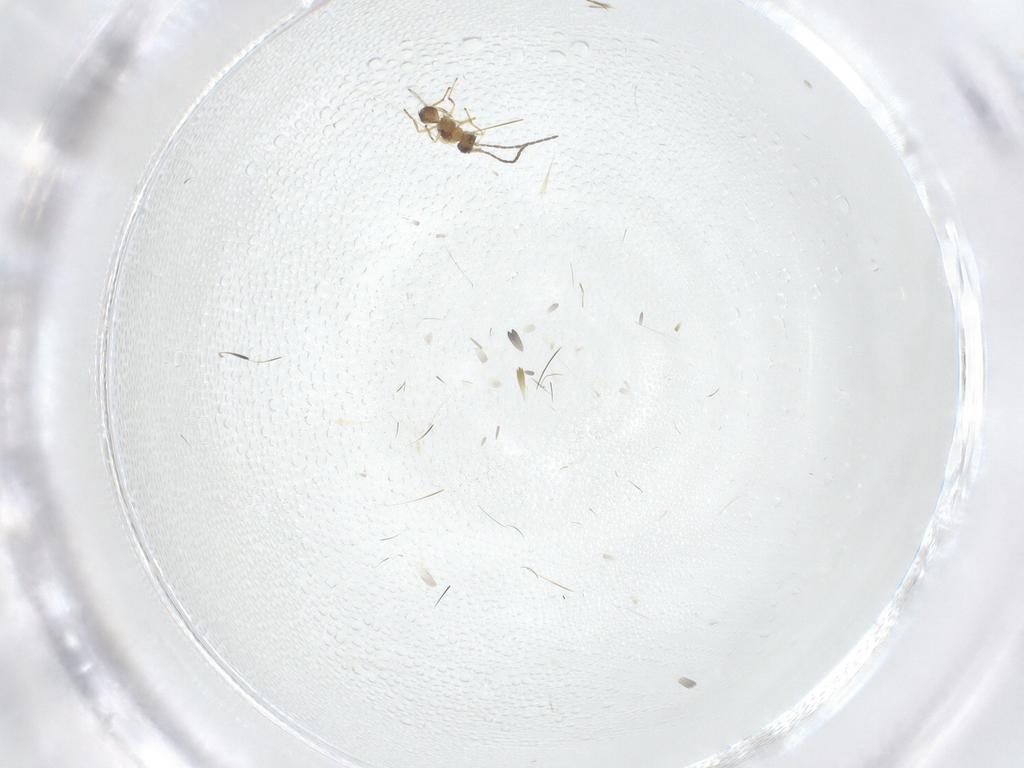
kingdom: Animalia
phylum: Arthropoda
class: Insecta
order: Hymenoptera
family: Mymaridae
